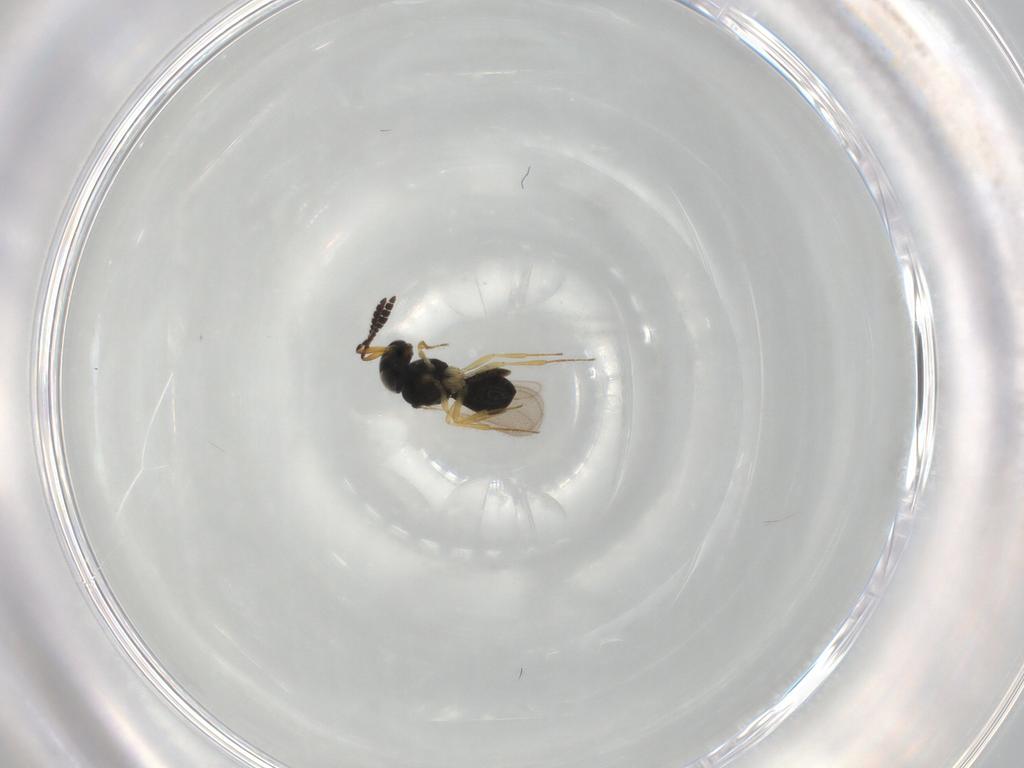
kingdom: Animalia
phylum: Arthropoda
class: Insecta
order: Hymenoptera
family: Scelionidae
